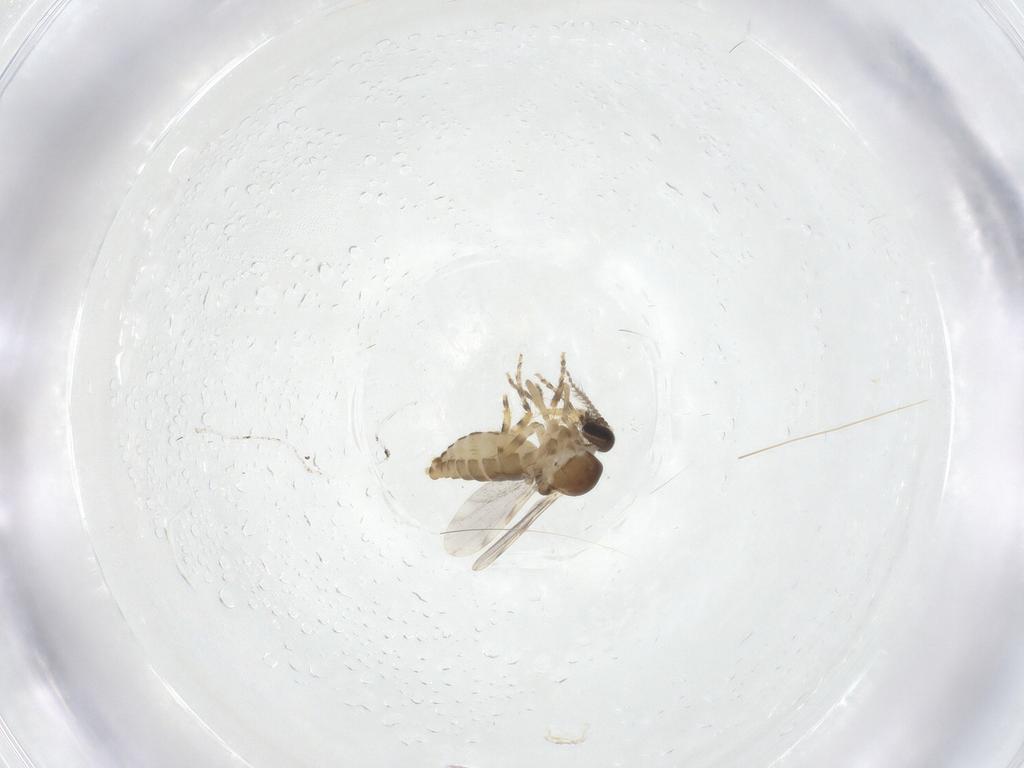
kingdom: Animalia
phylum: Arthropoda
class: Insecta
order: Diptera
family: Ceratopogonidae
